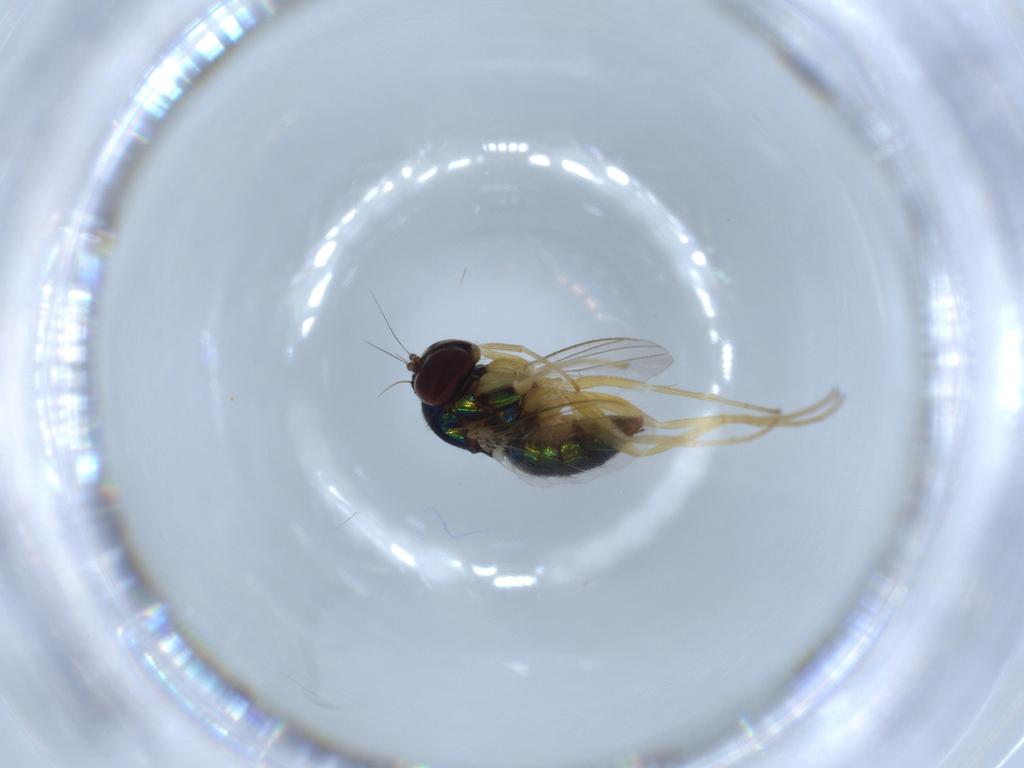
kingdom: Animalia
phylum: Arthropoda
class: Insecta
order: Diptera
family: Dolichopodidae
